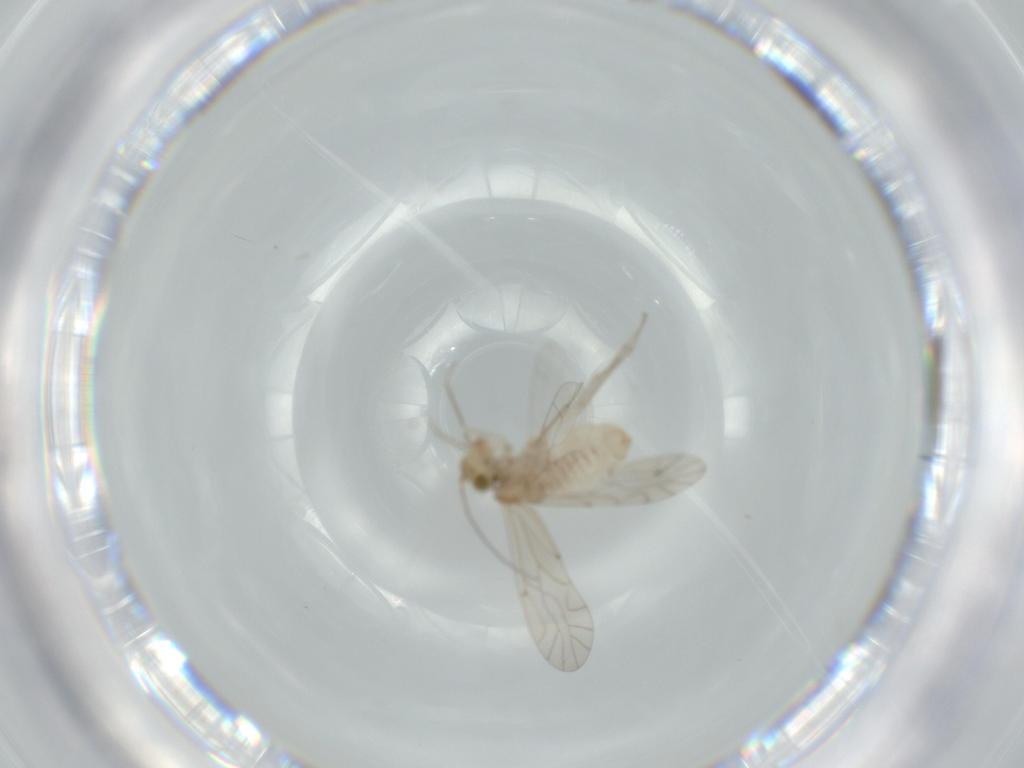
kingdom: Animalia
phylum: Arthropoda
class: Insecta
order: Psocodea
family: Lachesillidae
